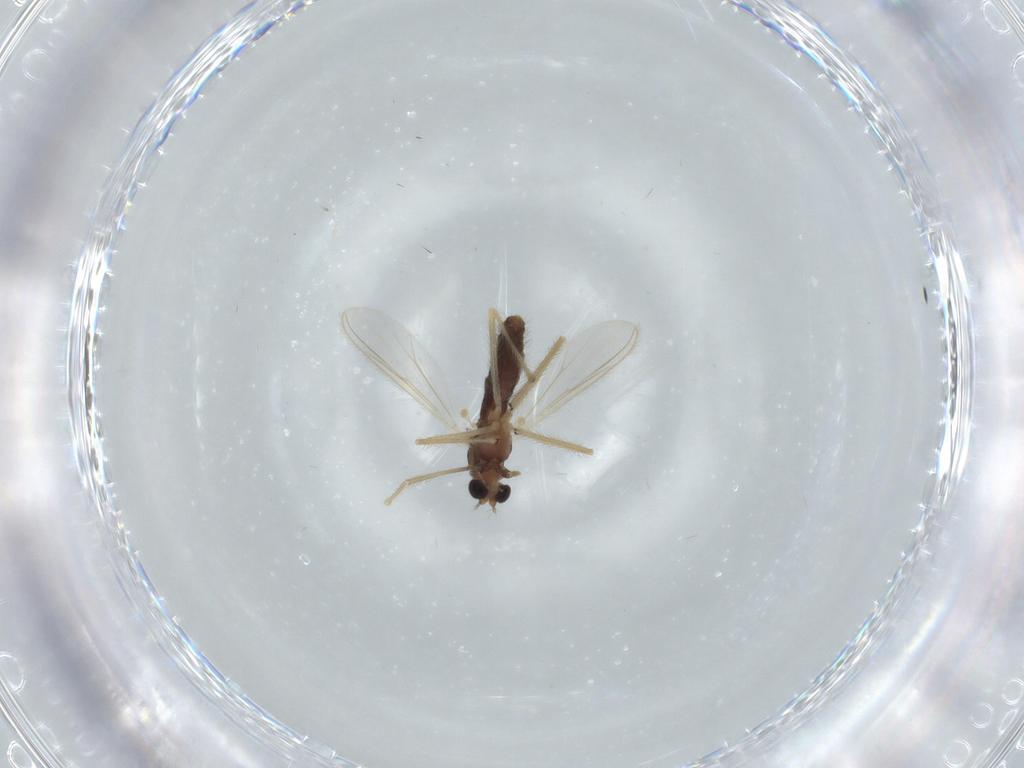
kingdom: Animalia
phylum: Arthropoda
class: Insecta
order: Diptera
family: Chironomidae
